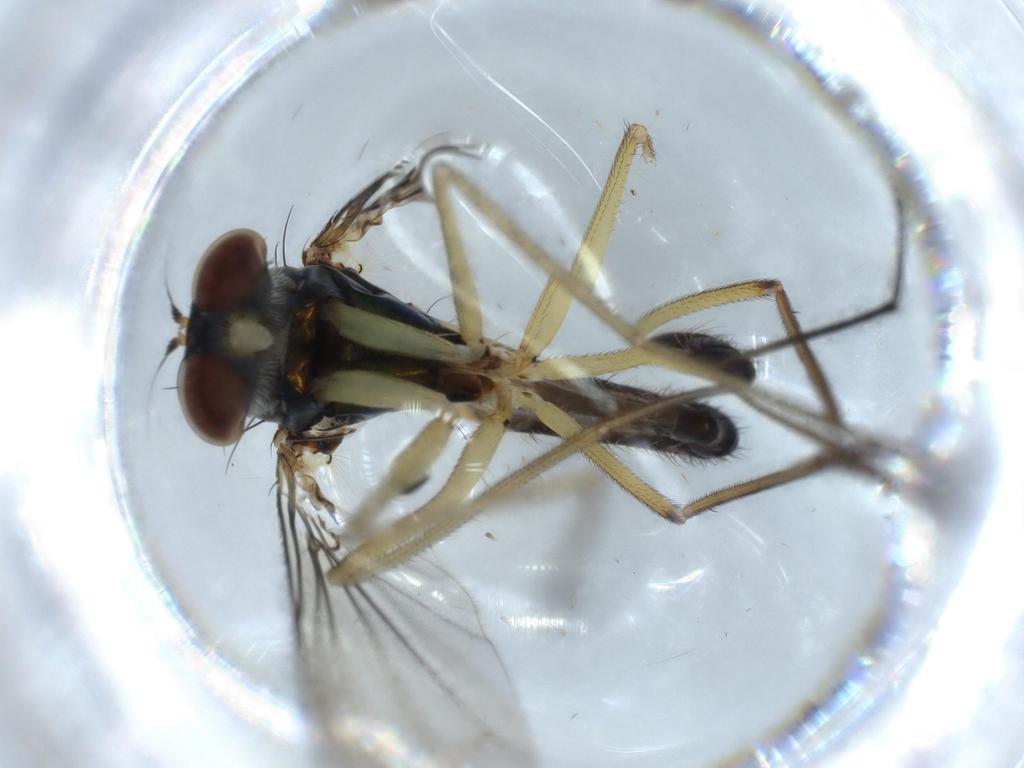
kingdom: Animalia
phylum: Arthropoda
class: Insecta
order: Diptera
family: Dolichopodidae
